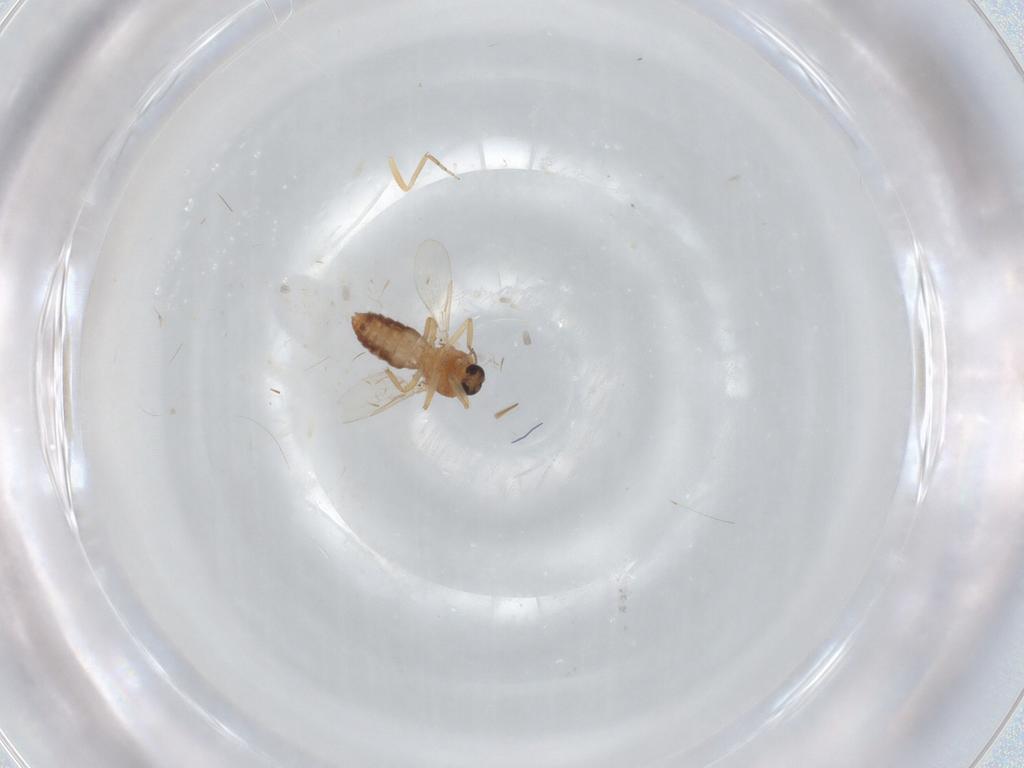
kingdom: Animalia
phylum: Arthropoda
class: Insecta
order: Diptera
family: Ceratopogonidae
